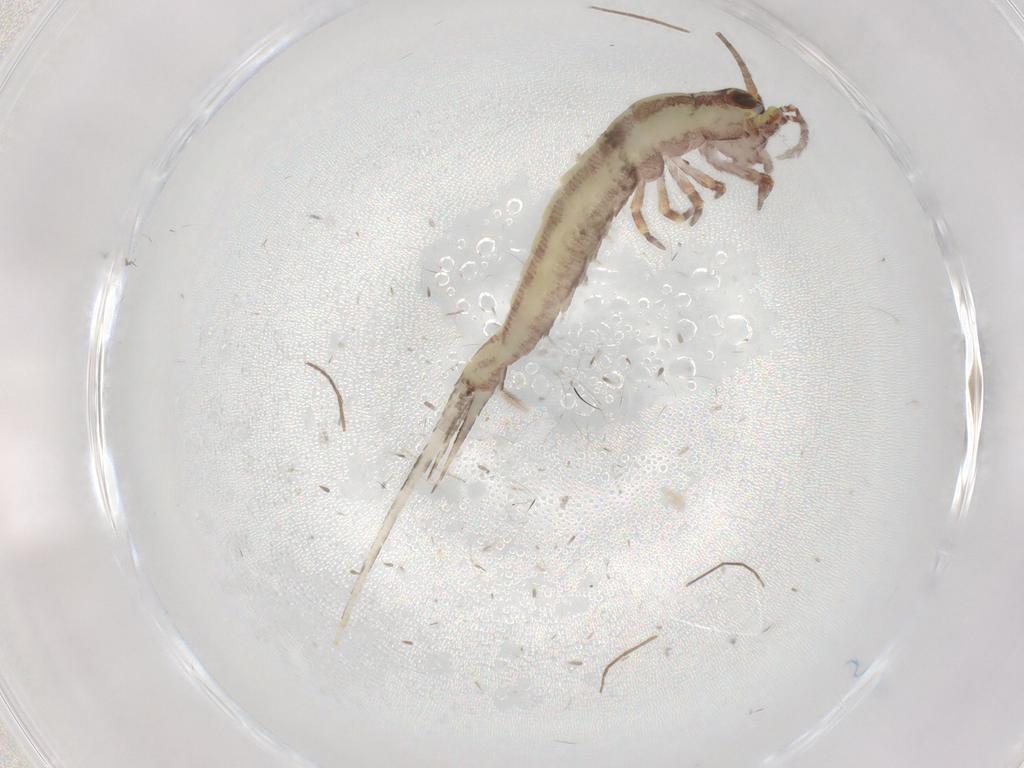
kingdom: Animalia
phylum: Arthropoda
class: Insecta
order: Archaeognatha
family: Machilidae
